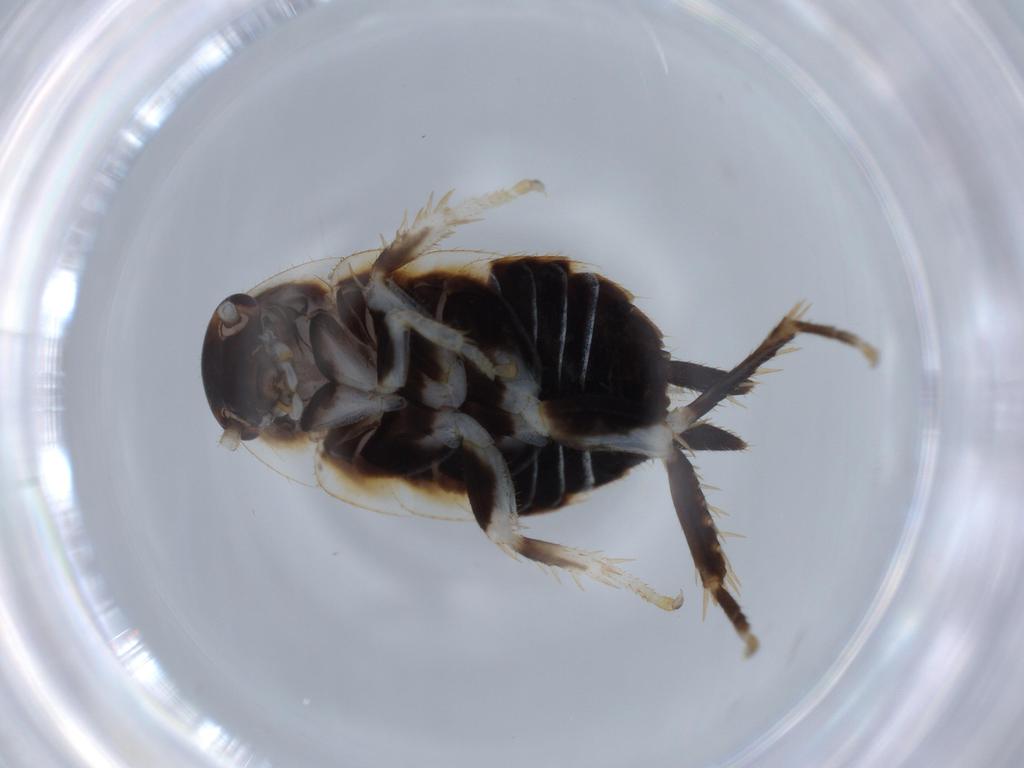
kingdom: Animalia
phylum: Arthropoda
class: Insecta
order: Blattodea
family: Ectobiidae
